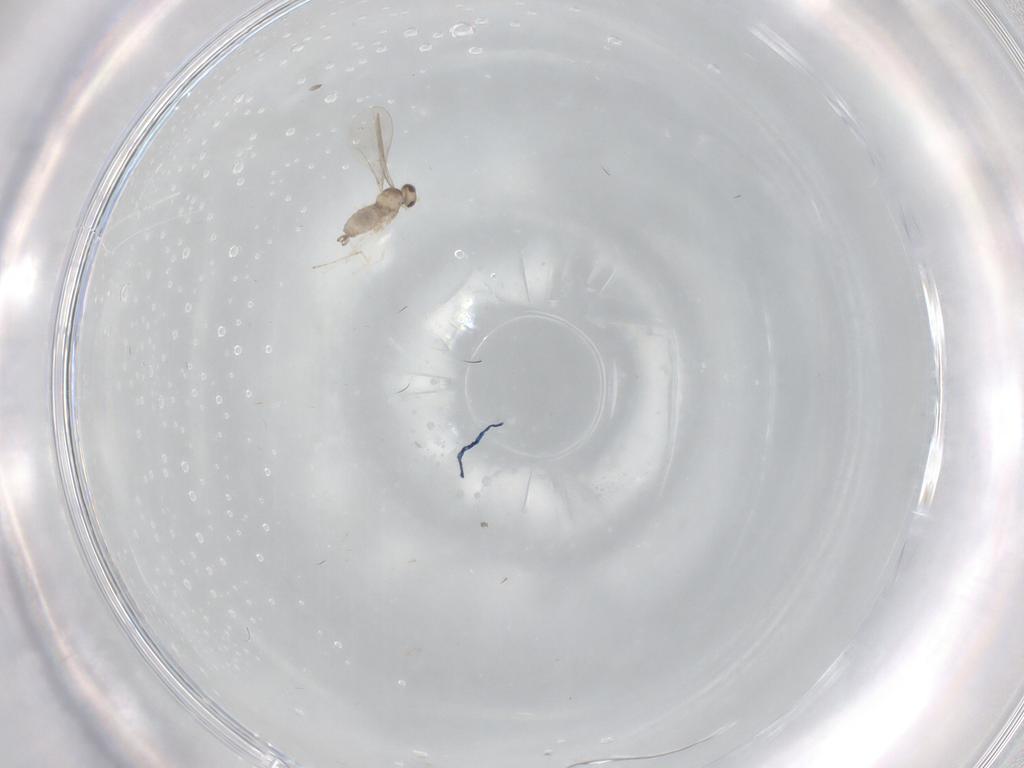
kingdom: Animalia
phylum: Arthropoda
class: Insecta
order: Diptera
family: Cecidomyiidae
